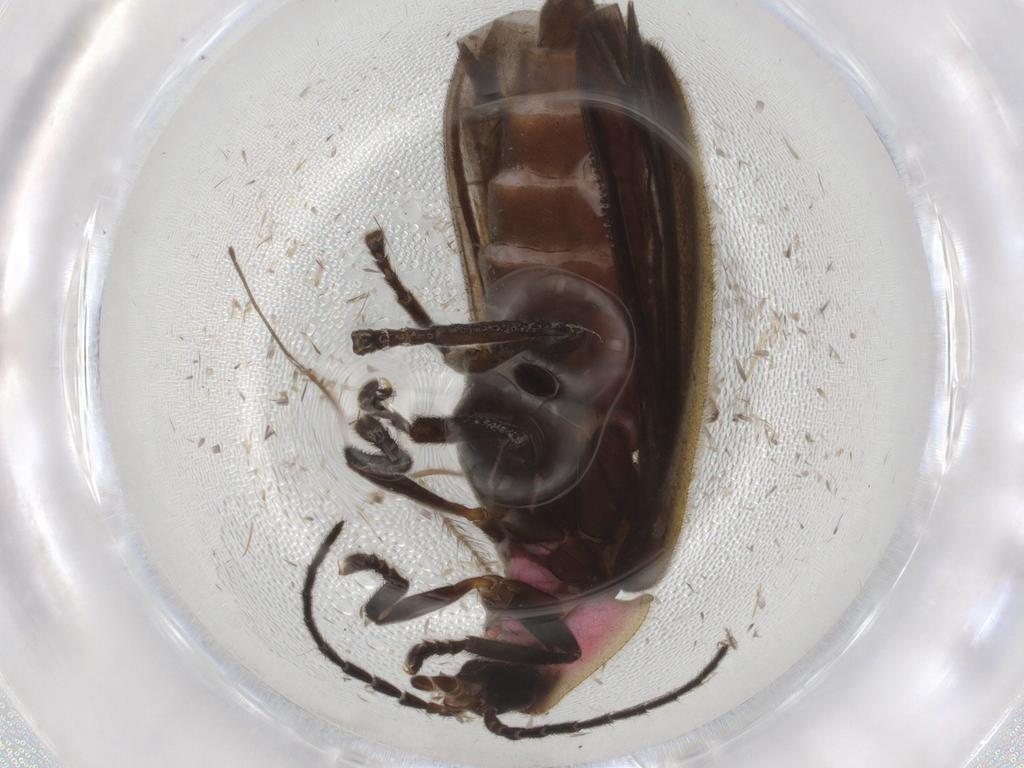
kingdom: Animalia
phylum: Arthropoda
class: Insecta
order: Coleoptera
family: Lampyridae
